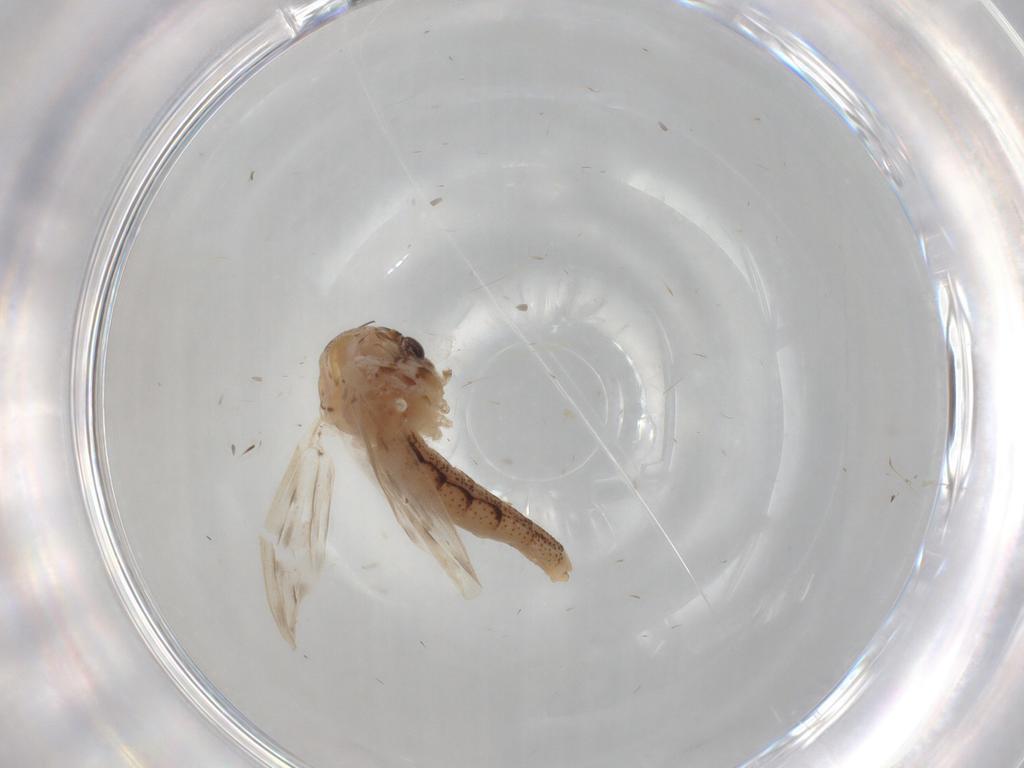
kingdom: Animalia
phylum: Arthropoda
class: Insecta
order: Diptera
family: Chaoboridae
